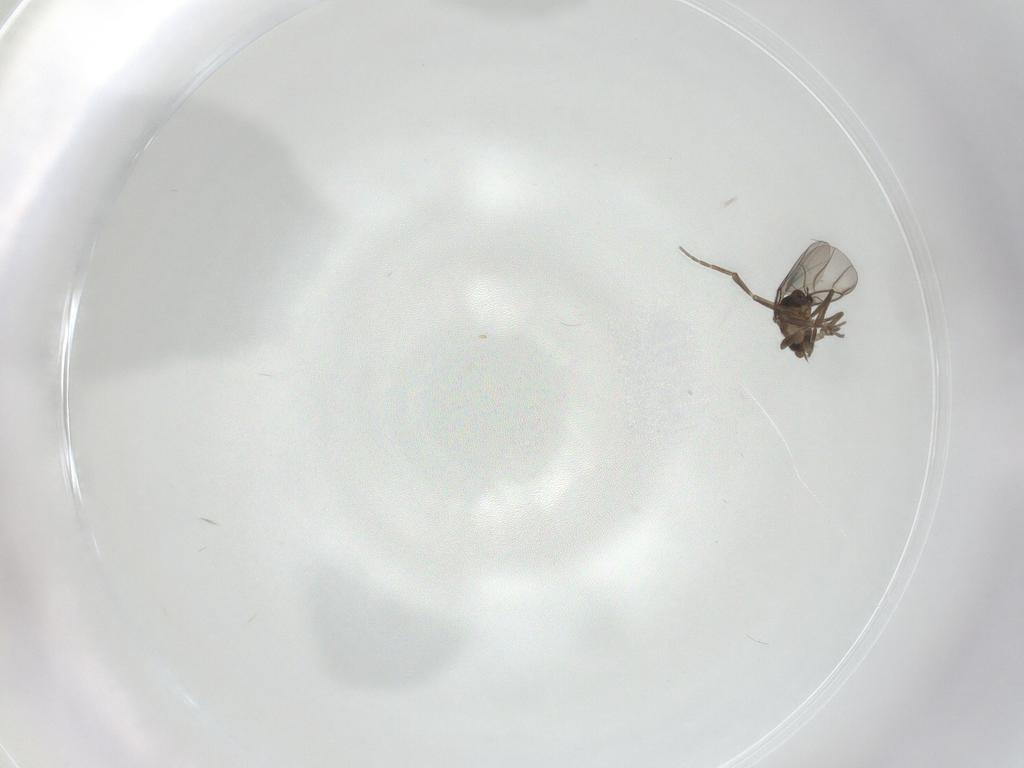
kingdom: Animalia
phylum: Arthropoda
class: Insecta
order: Diptera
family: Phoridae
